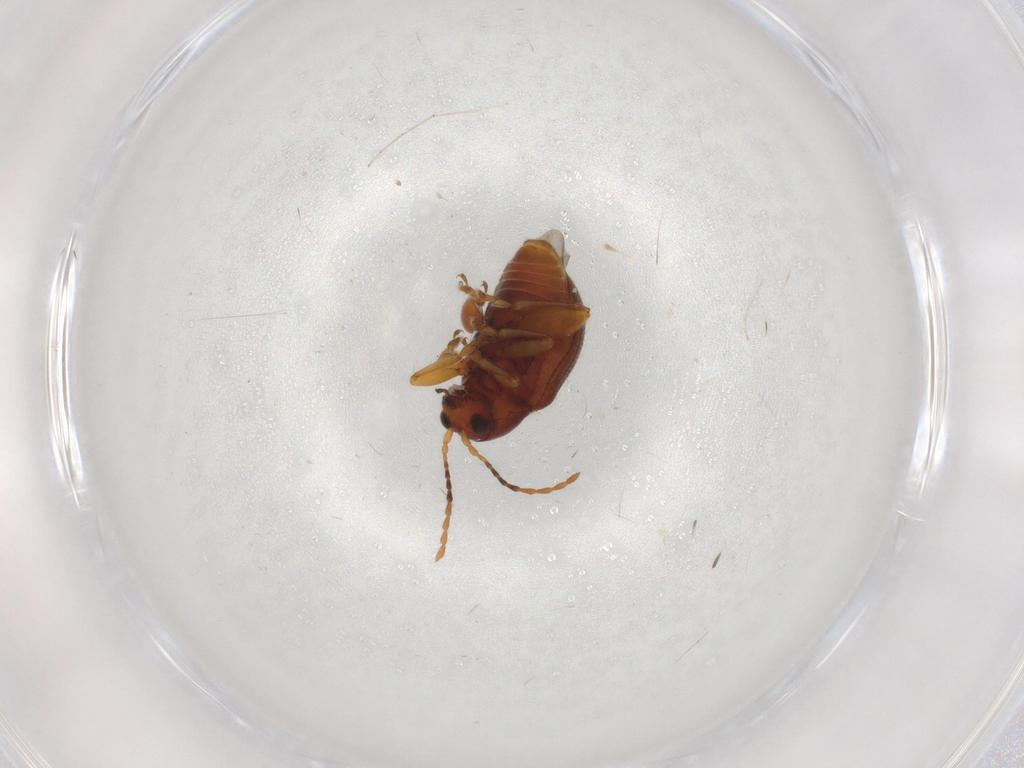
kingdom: Animalia
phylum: Arthropoda
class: Insecta
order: Coleoptera
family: Chrysomelidae
